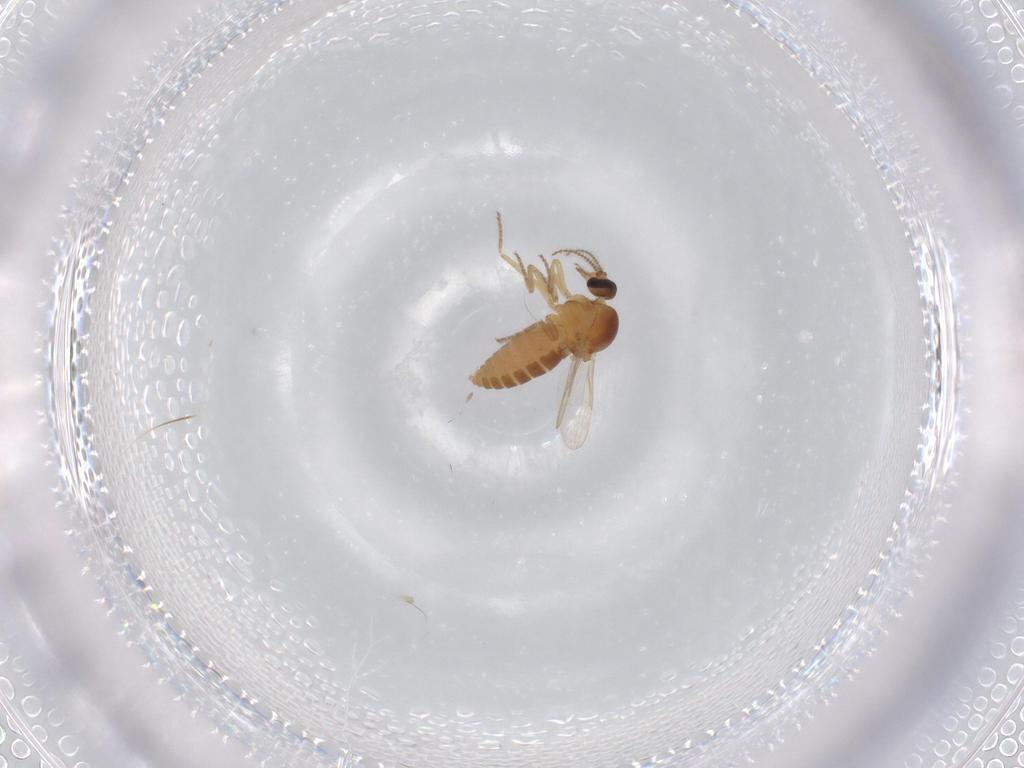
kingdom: Animalia
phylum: Arthropoda
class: Insecta
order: Diptera
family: Ceratopogonidae
